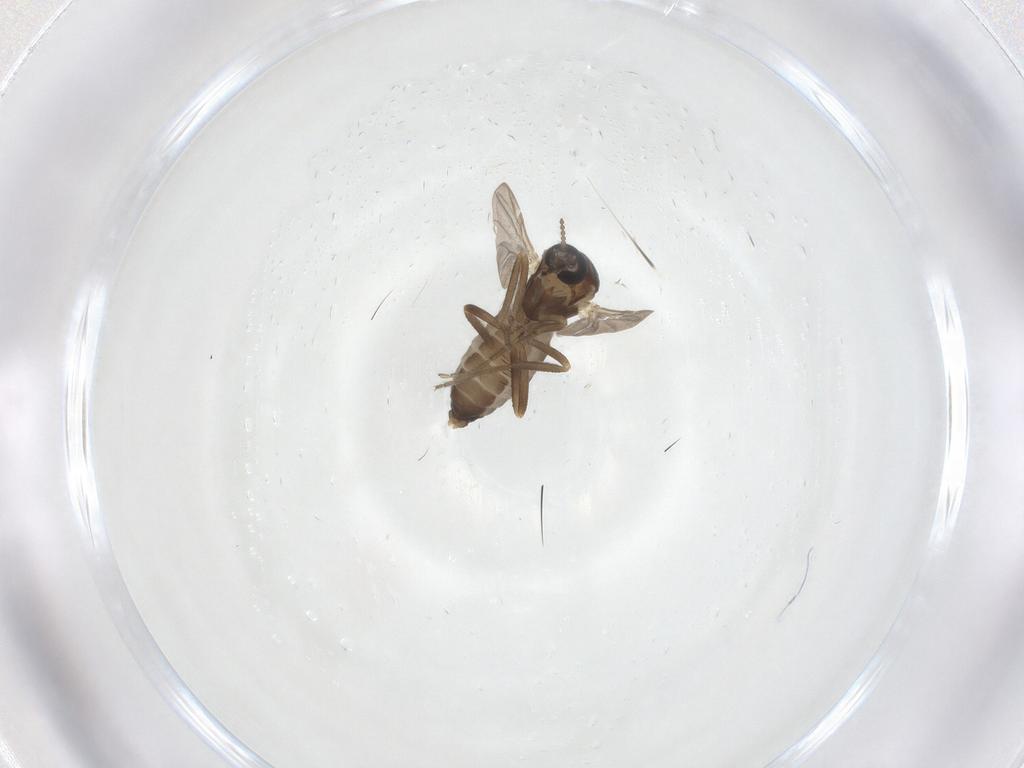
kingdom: Animalia
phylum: Arthropoda
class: Insecta
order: Diptera
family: Ceratopogonidae
